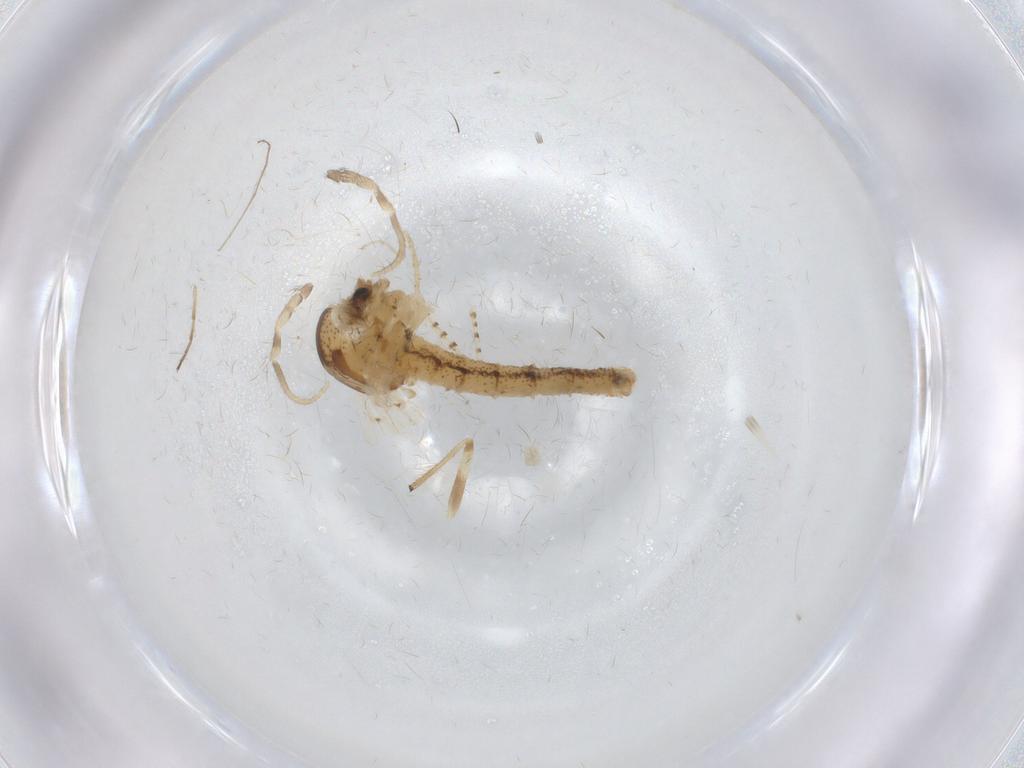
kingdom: Animalia
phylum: Arthropoda
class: Insecta
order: Diptera
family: Chaoboridae
